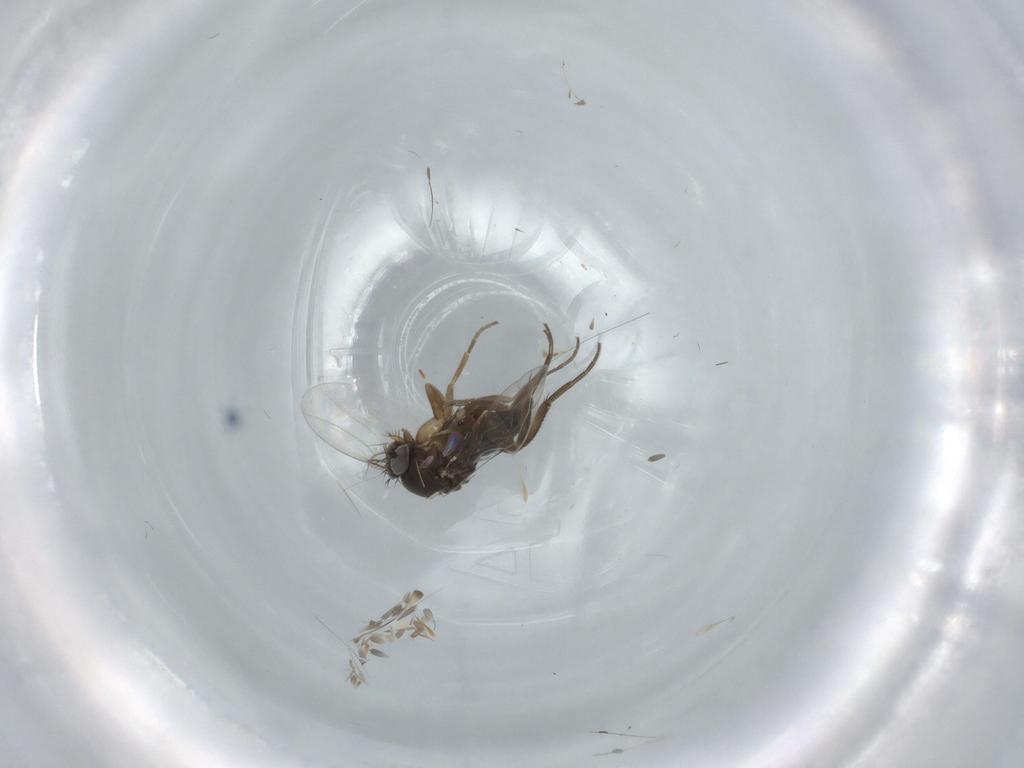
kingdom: Animalia
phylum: Arthropoda
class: Insecta
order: Diptera
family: Phoridae
